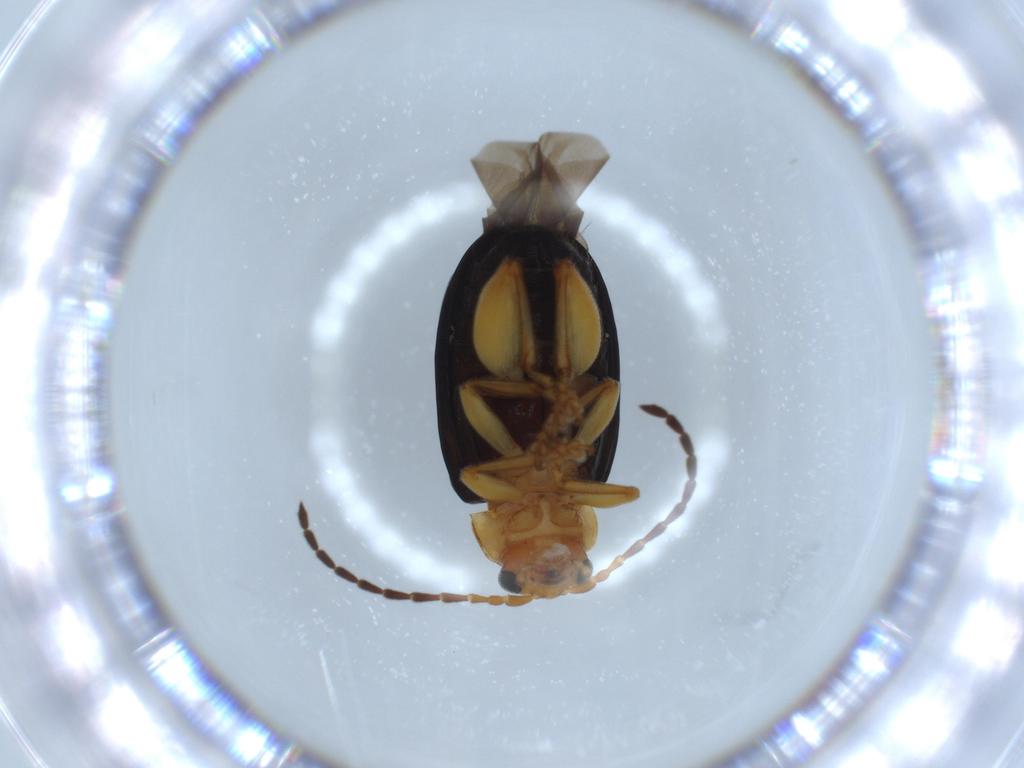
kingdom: Animalia
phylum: Arthropoda
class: Insecta
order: Coleoptera
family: Chrysomelidae
